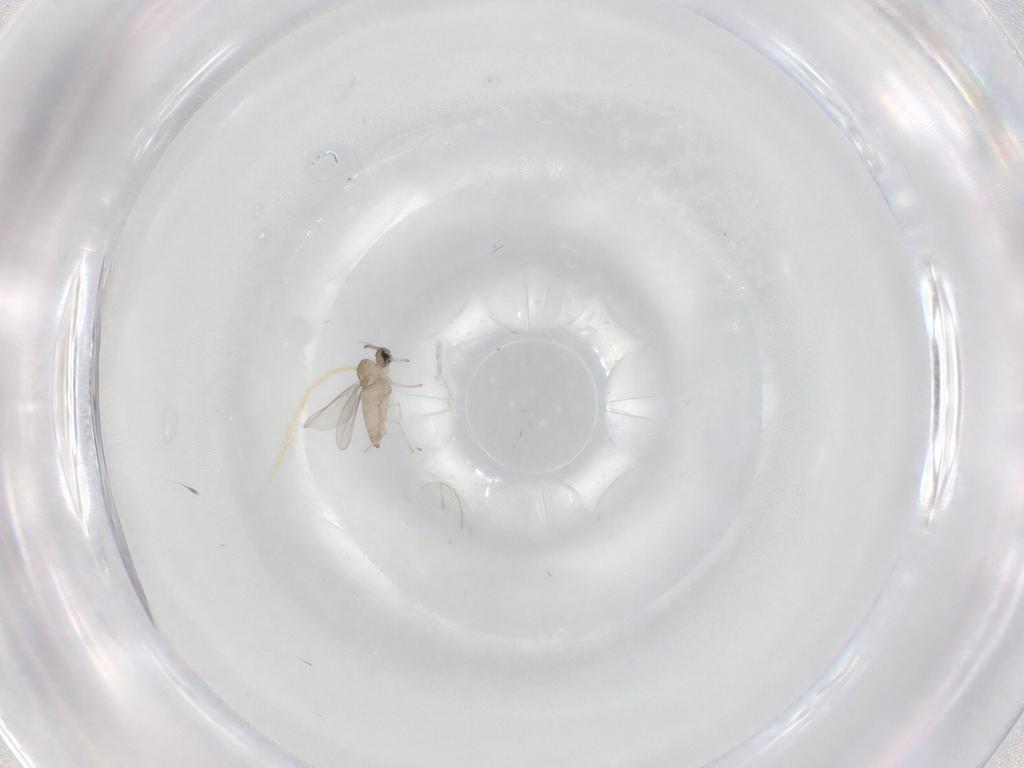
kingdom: Animalia
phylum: Arthropoda
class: Insecta
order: Diptera
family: Cecidomyiidae
